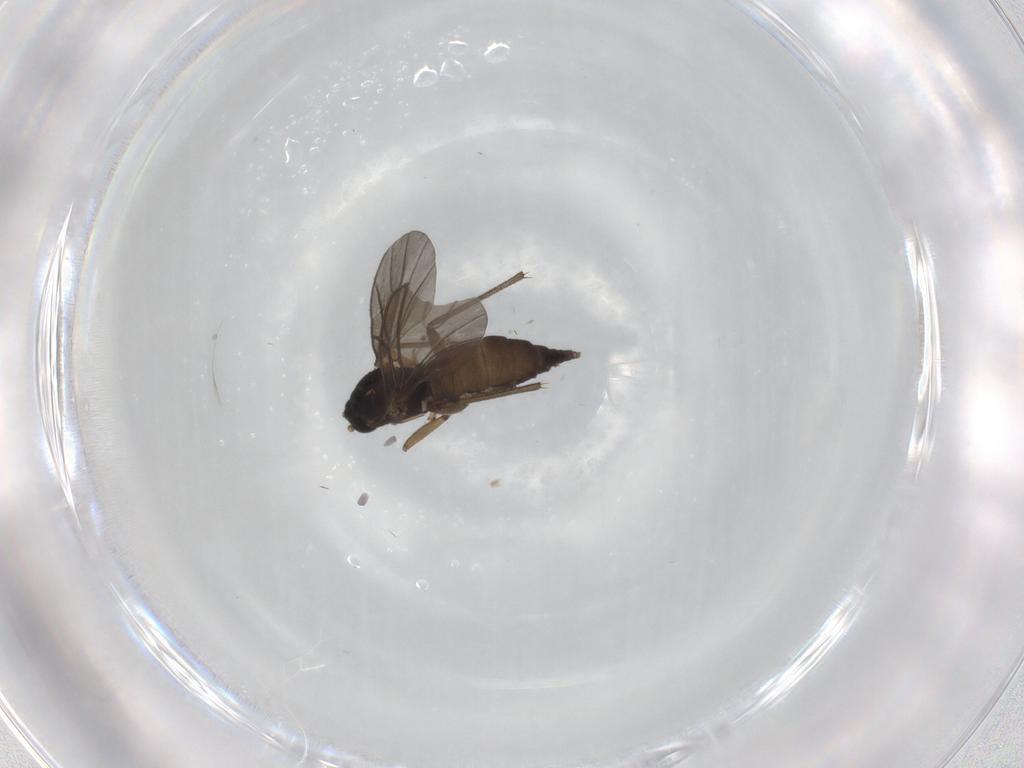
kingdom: Animalia
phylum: Arthropoda
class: Insecta
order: Diptera
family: Sciaridae
